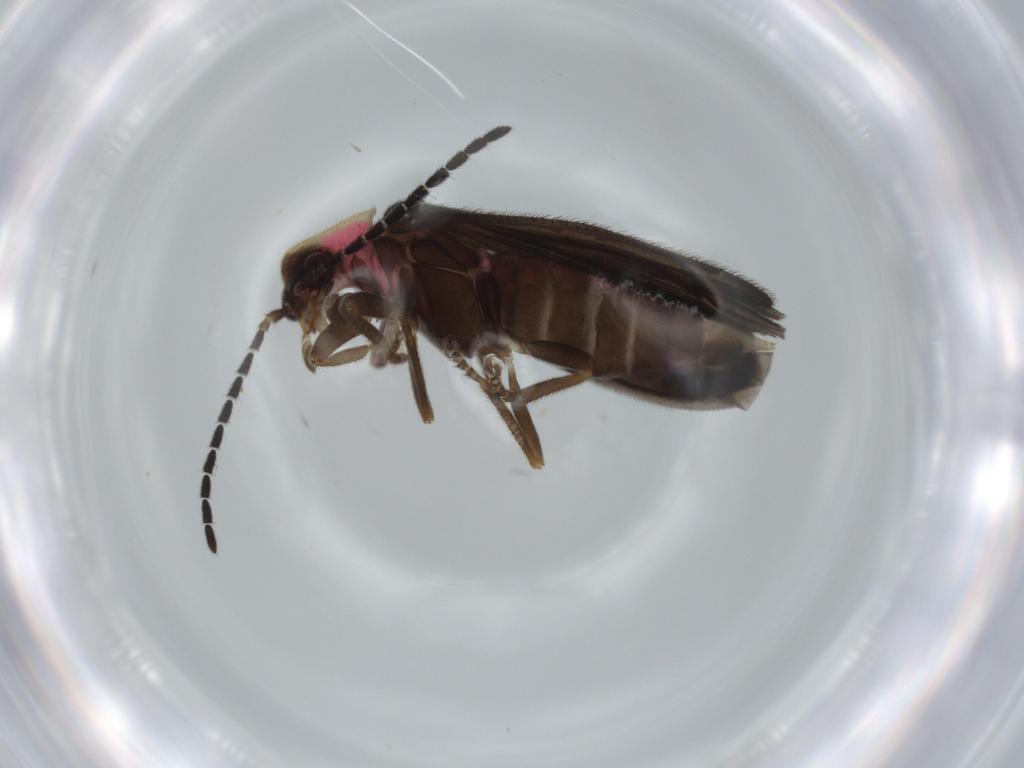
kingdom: Animalia
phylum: Arthropoda
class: Insecta
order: Coleoptera
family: Lampyridae
